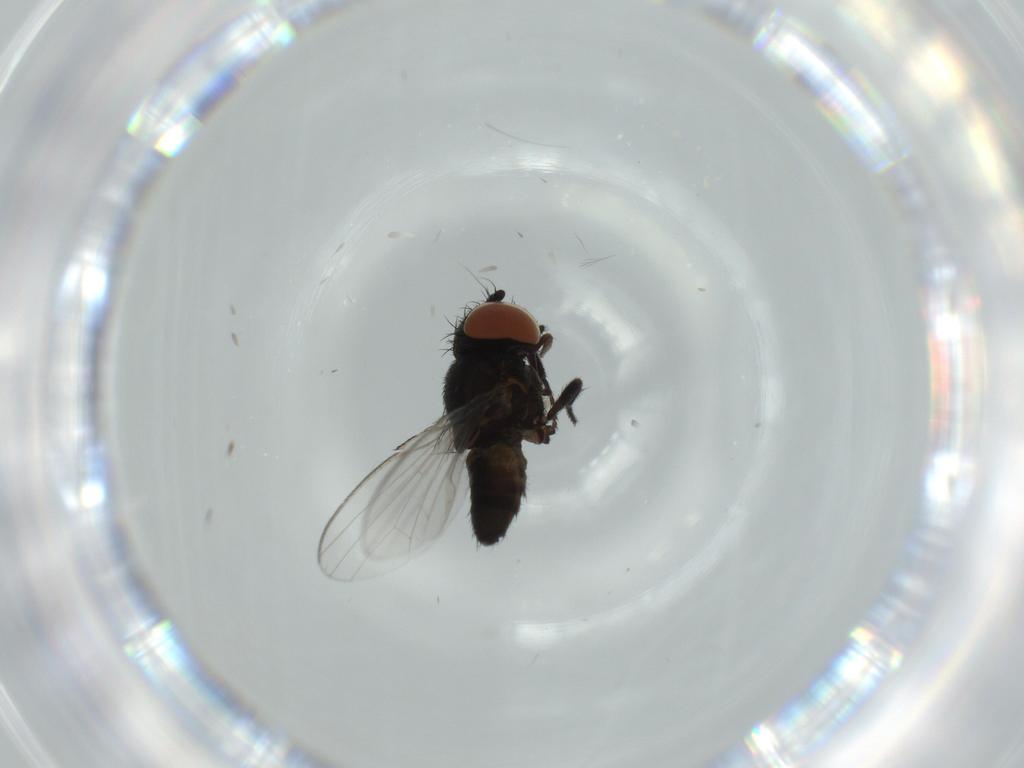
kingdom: Animalia
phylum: Arthropoda
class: Insecta
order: Diptera
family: Milichiidae
